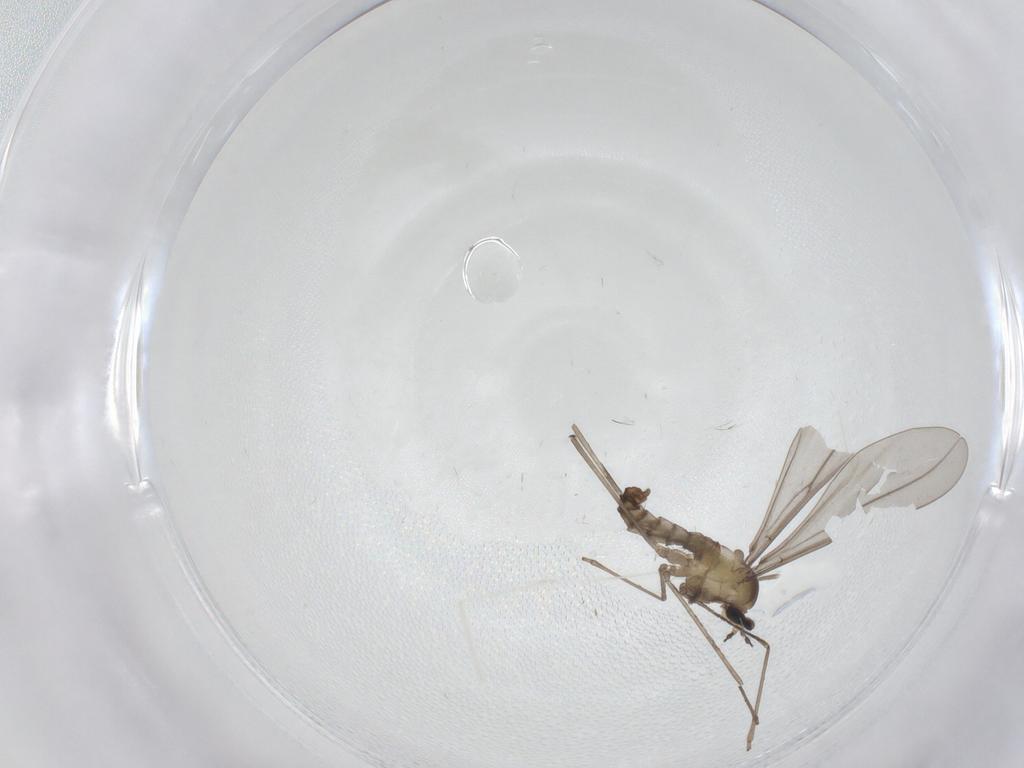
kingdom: Animalia
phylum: Arthropoda
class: Insecta
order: Diptera
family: Cecidomyiidae
